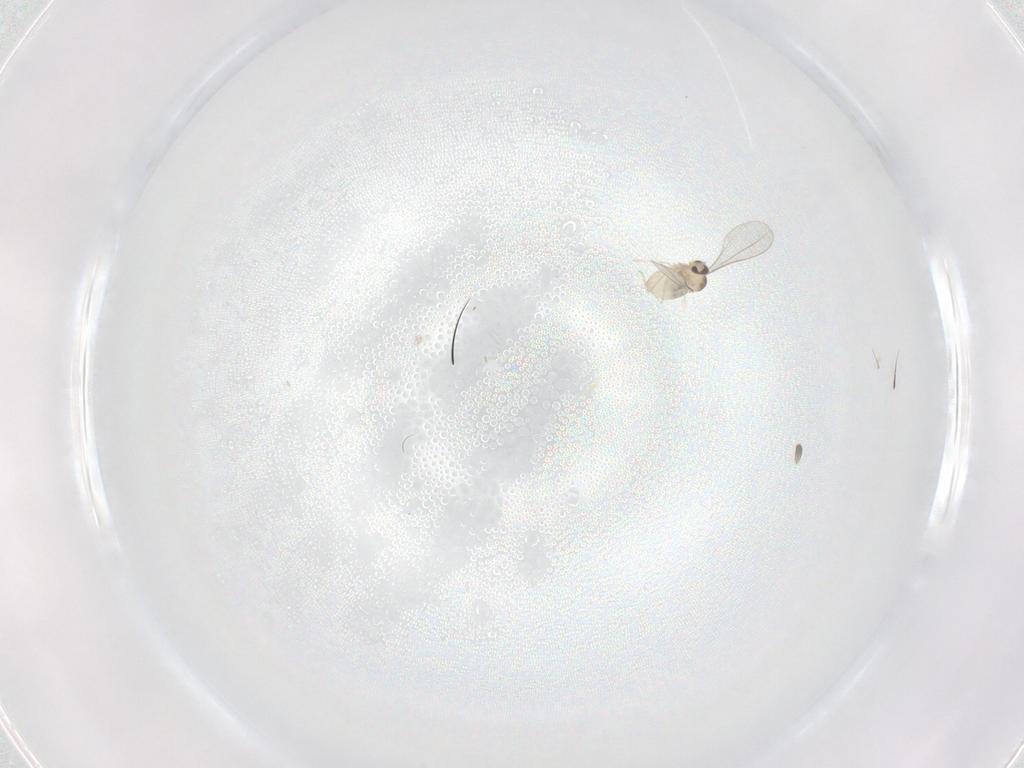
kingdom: Animalia
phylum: Arthropoda
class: Insecta
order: Diptera
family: Cecidomyiidae
